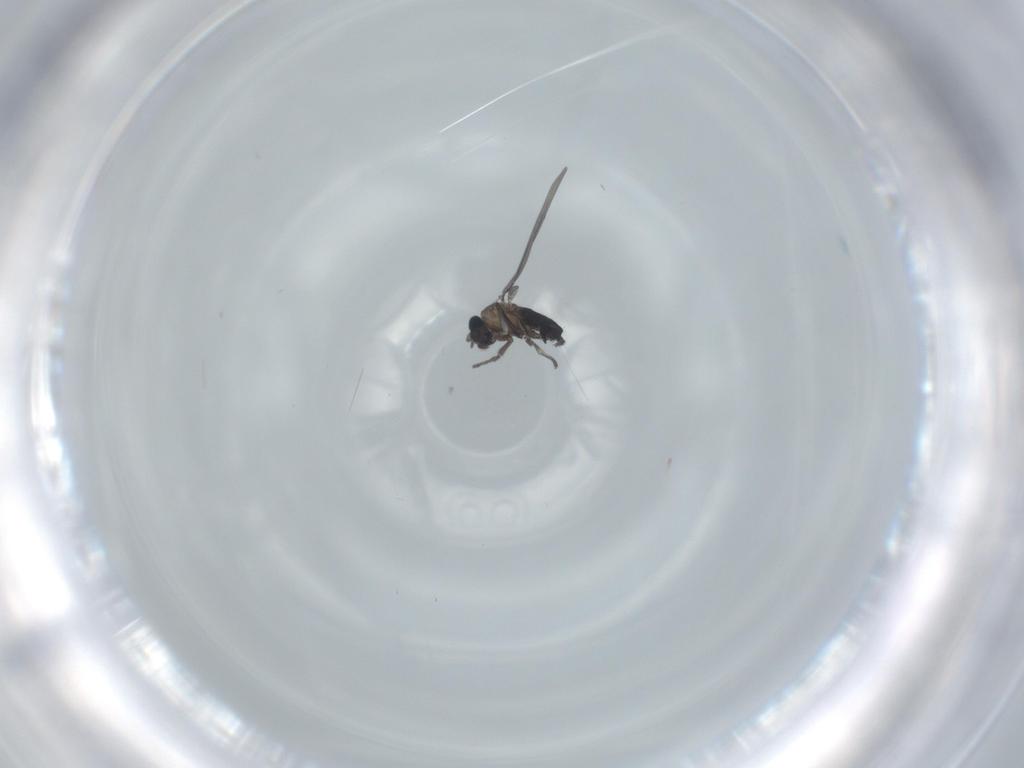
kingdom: Animalia
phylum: Arthropoda
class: Insecta
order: Diptera
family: Phoridae
